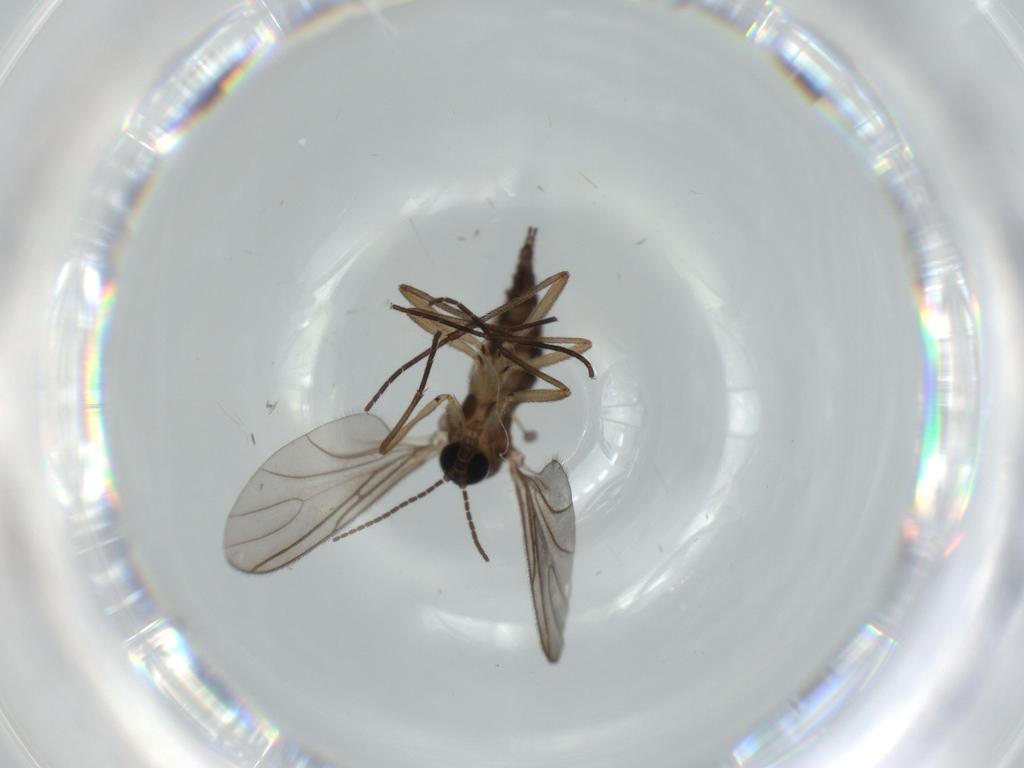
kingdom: Animalia
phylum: Arthropoda
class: Insecta
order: Diptera
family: Sciaridae
